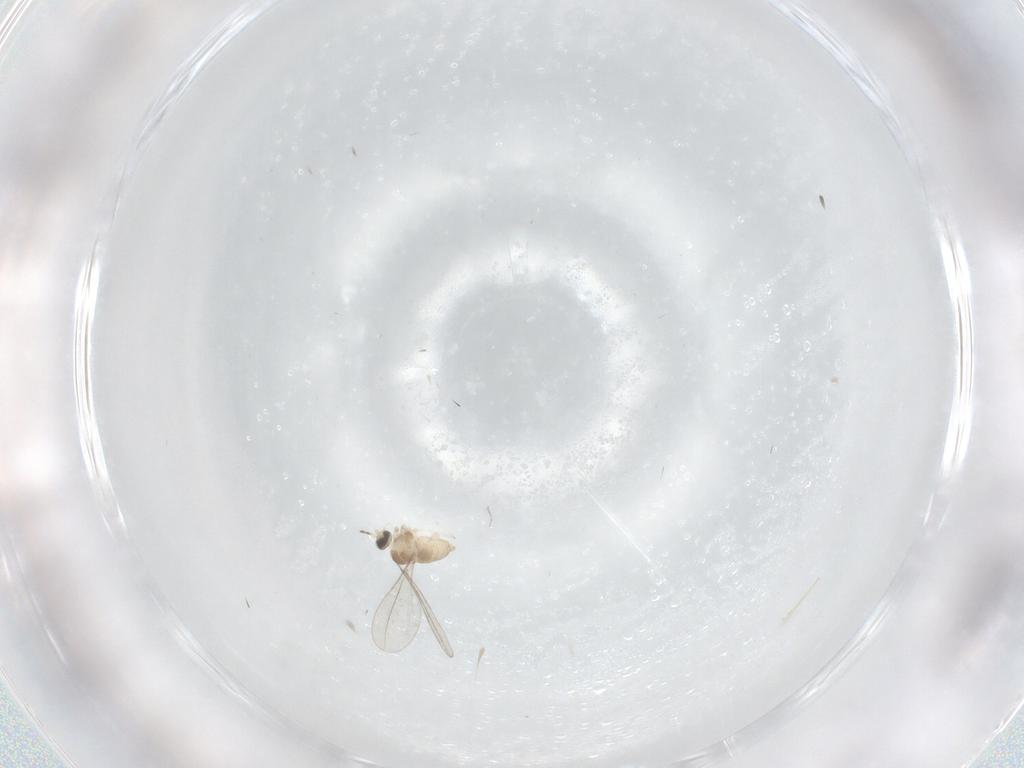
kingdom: Animalia
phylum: Arthropoda
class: Insecta
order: Diptera
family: Cecidomyiidae
